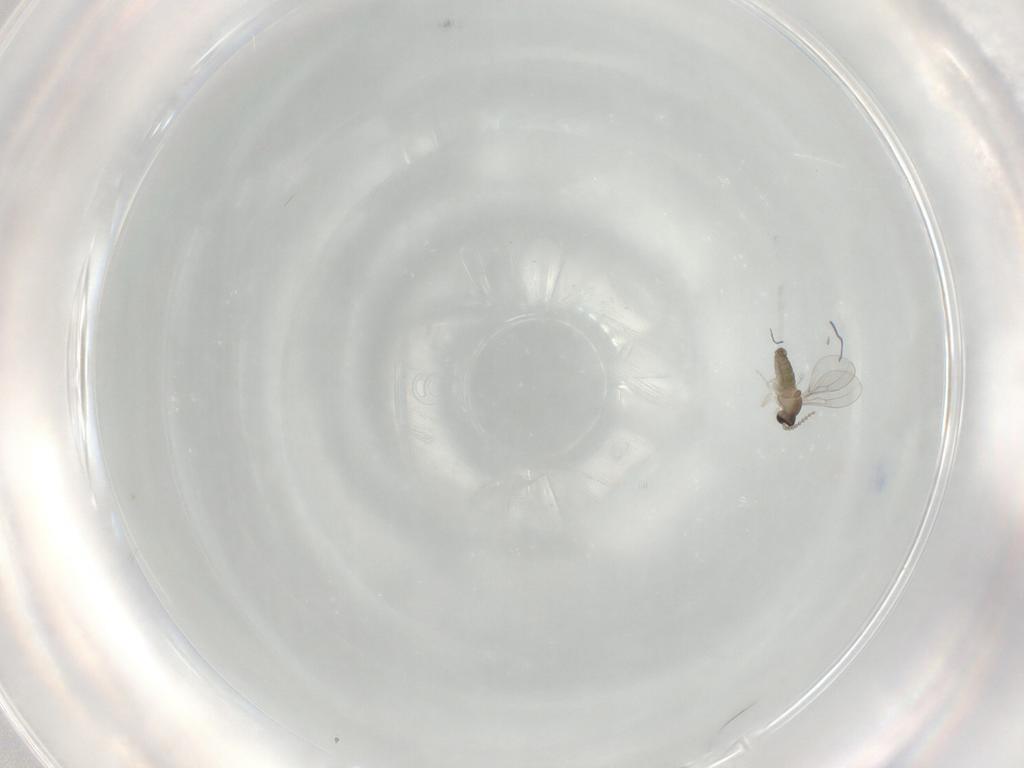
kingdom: Animalia
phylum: Arthropoda
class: Insecta
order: Diptera
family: Cecidomyiidae
